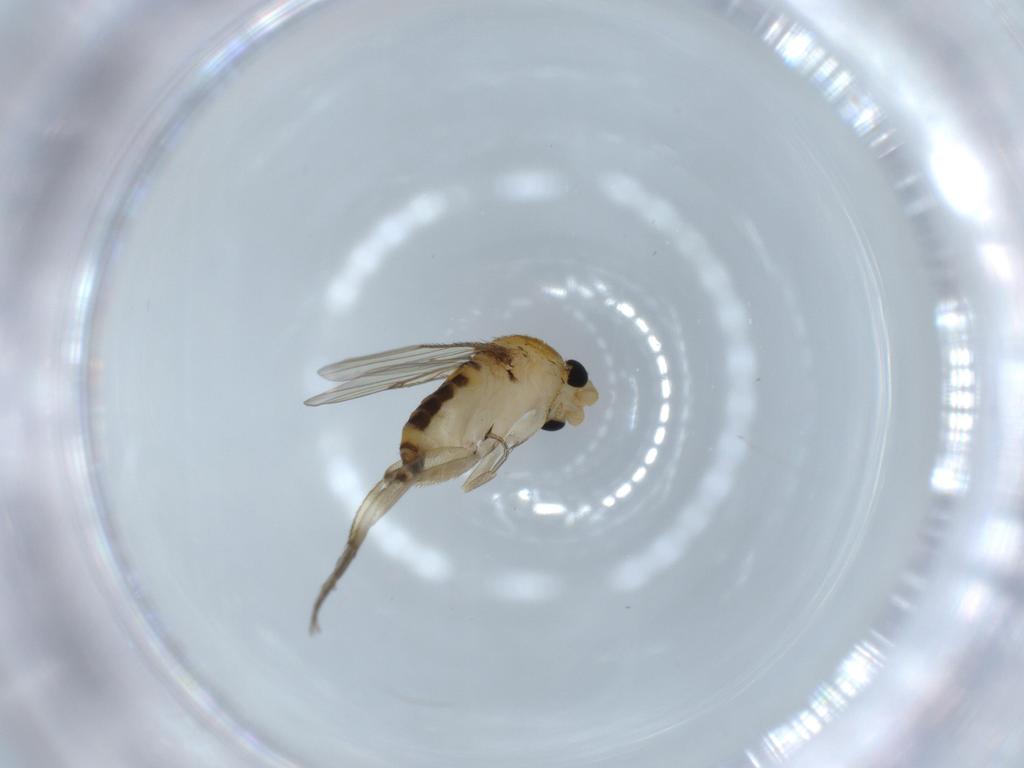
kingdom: Animalia
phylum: Arthropoda
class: Insecta
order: Diptera
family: Phoridae
